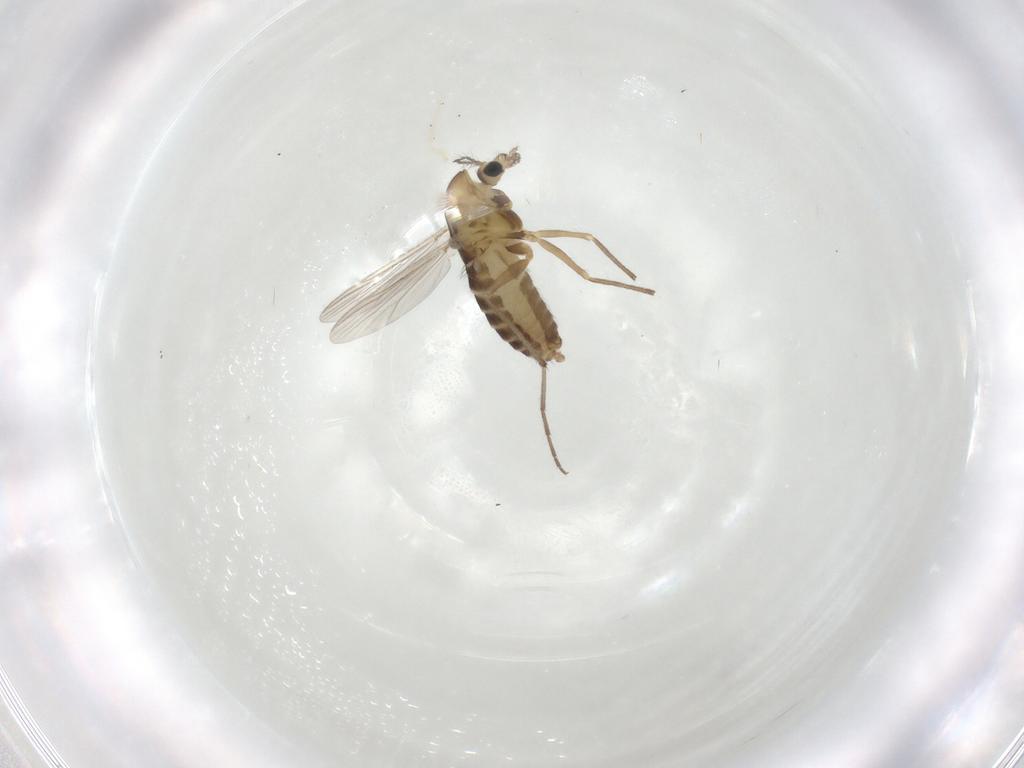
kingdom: Animalia
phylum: Arthropoda
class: Insecta
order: Diptera
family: Chironomidae
